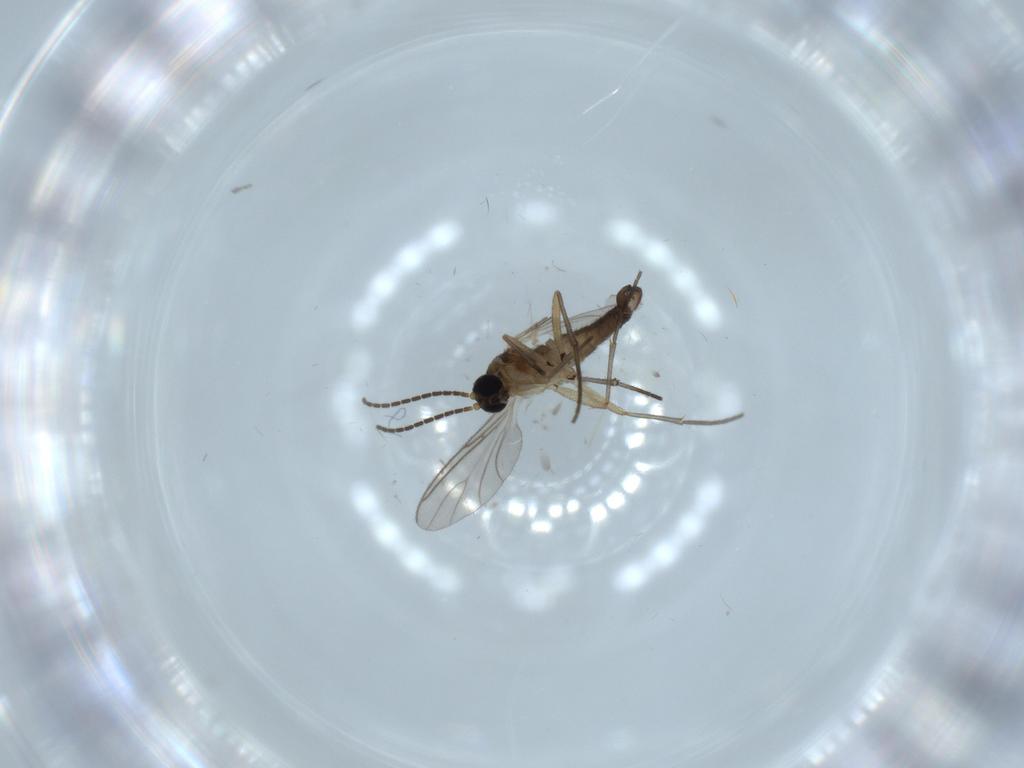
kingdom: Animalia
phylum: Arthropoda
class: Insecta
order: Diptera
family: Sciaridae
